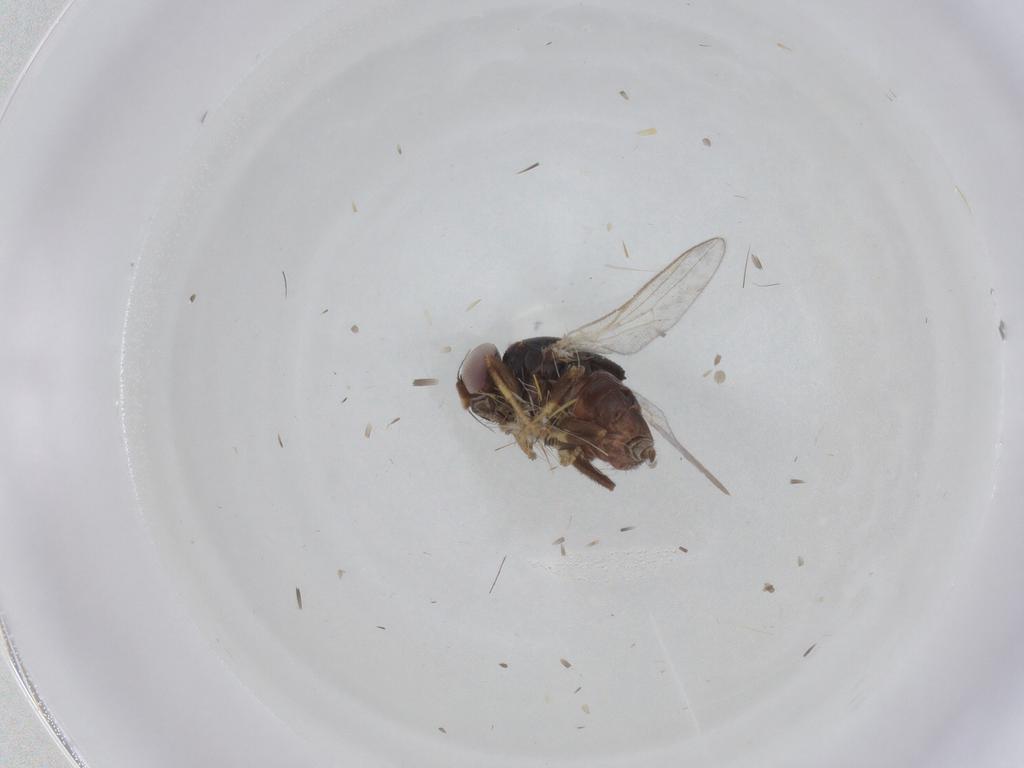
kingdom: Animalia
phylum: Arthropoda
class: Insecta
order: Diptera
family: Chloropidae
